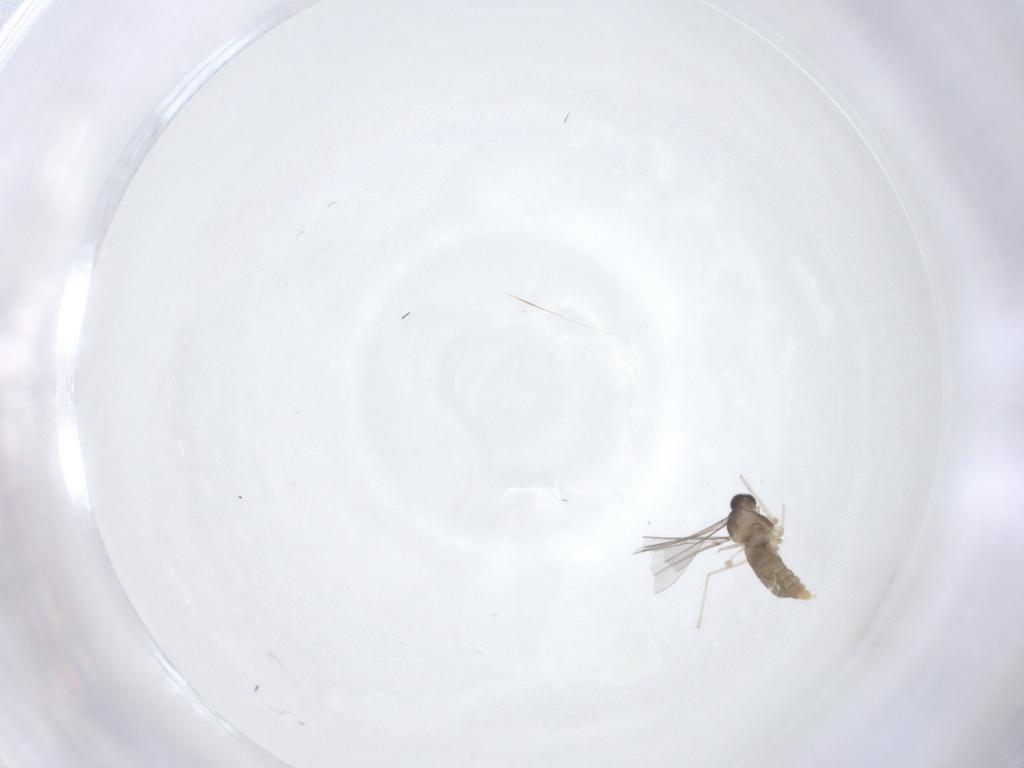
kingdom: Animalia
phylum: Arthropoda
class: Insecta
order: Diptera
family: Cecidomyiidae
